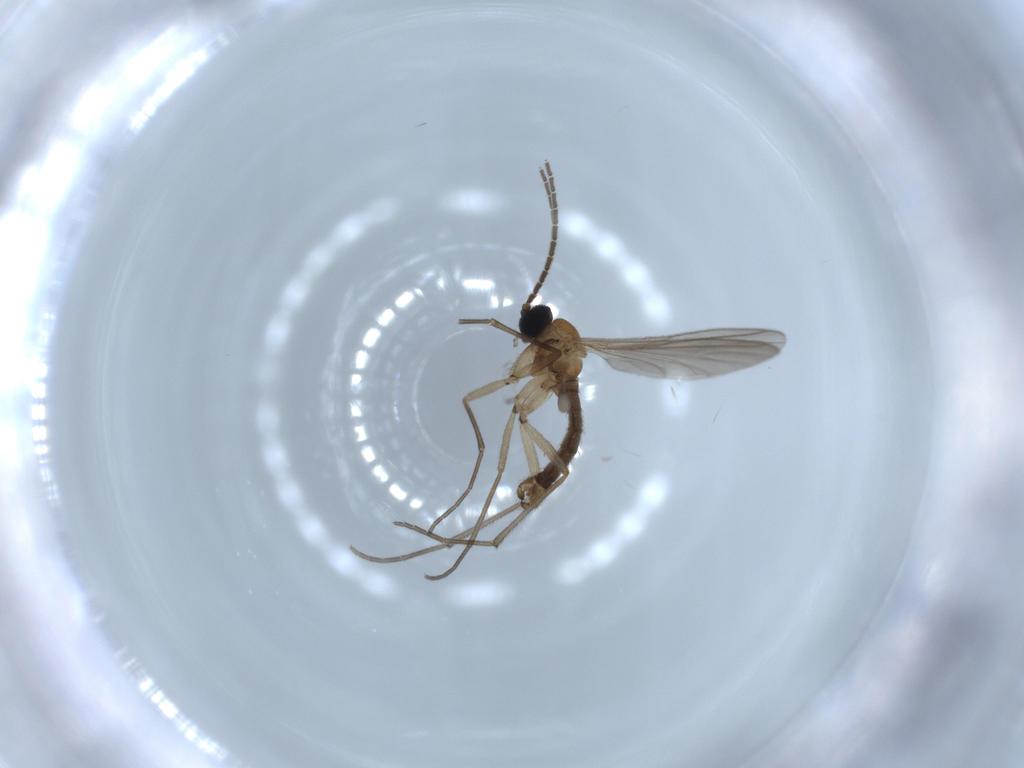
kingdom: Animalia
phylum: Arthropoda
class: Insecta
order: Diptera
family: Sciaridae
